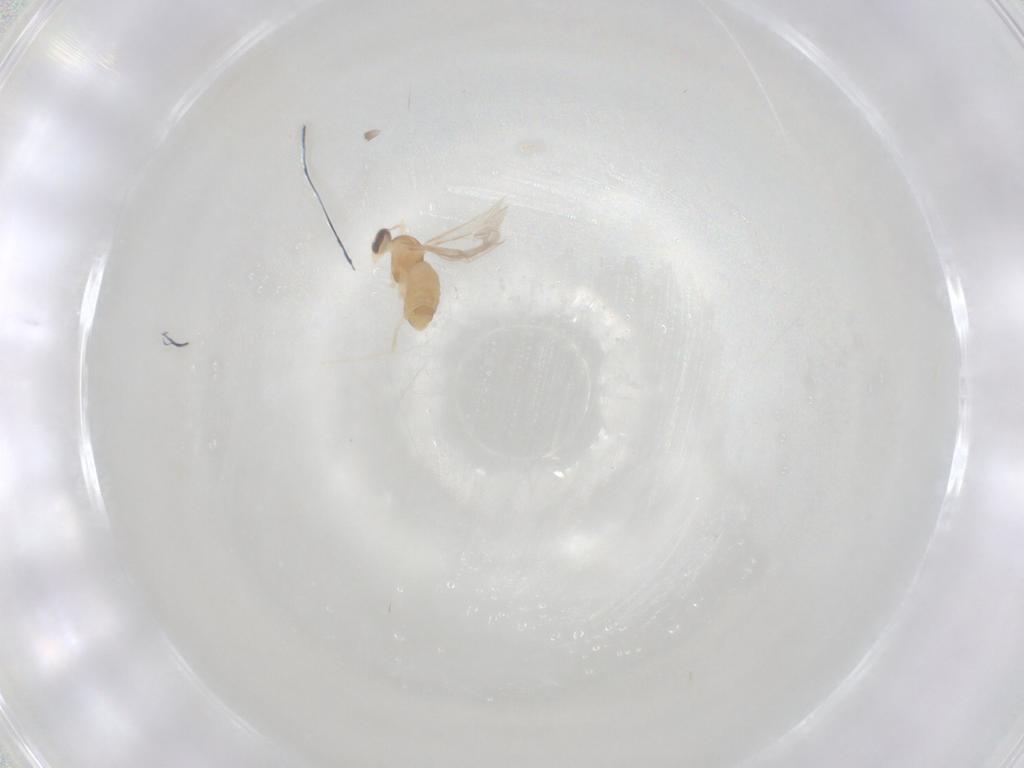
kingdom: Animalia
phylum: Arthropoda
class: Insecta
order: Diptera
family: Cecidomyiidae
